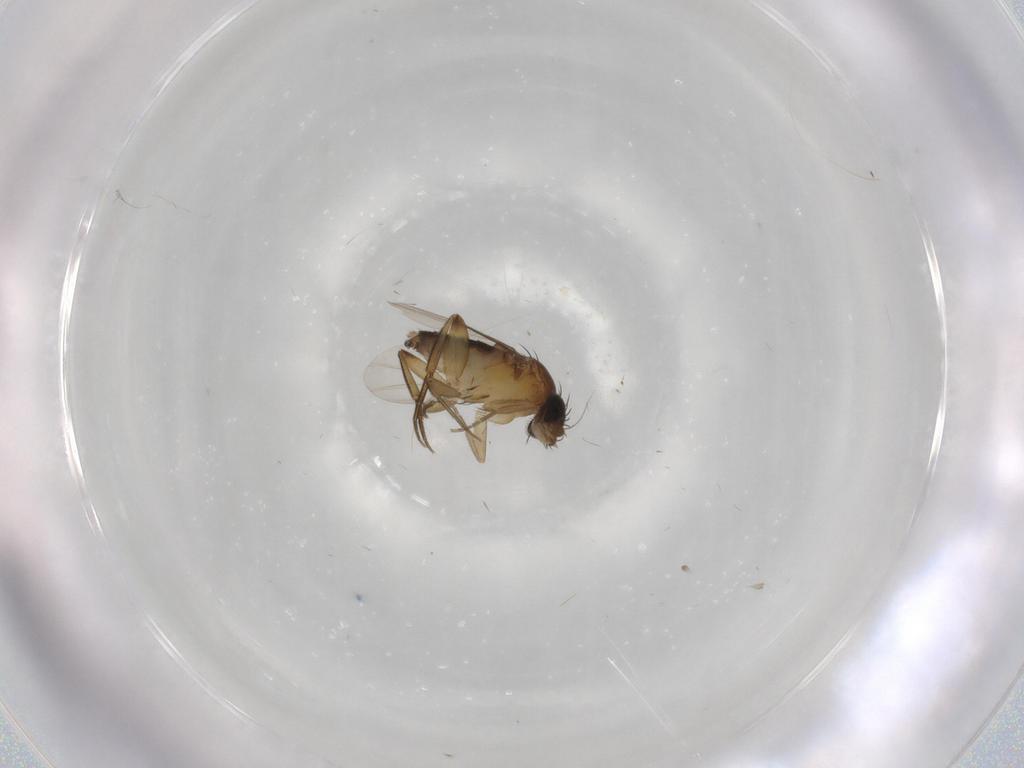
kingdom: Animalia
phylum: Arthropoda
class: Insecta
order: Diptera
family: Phoridae
